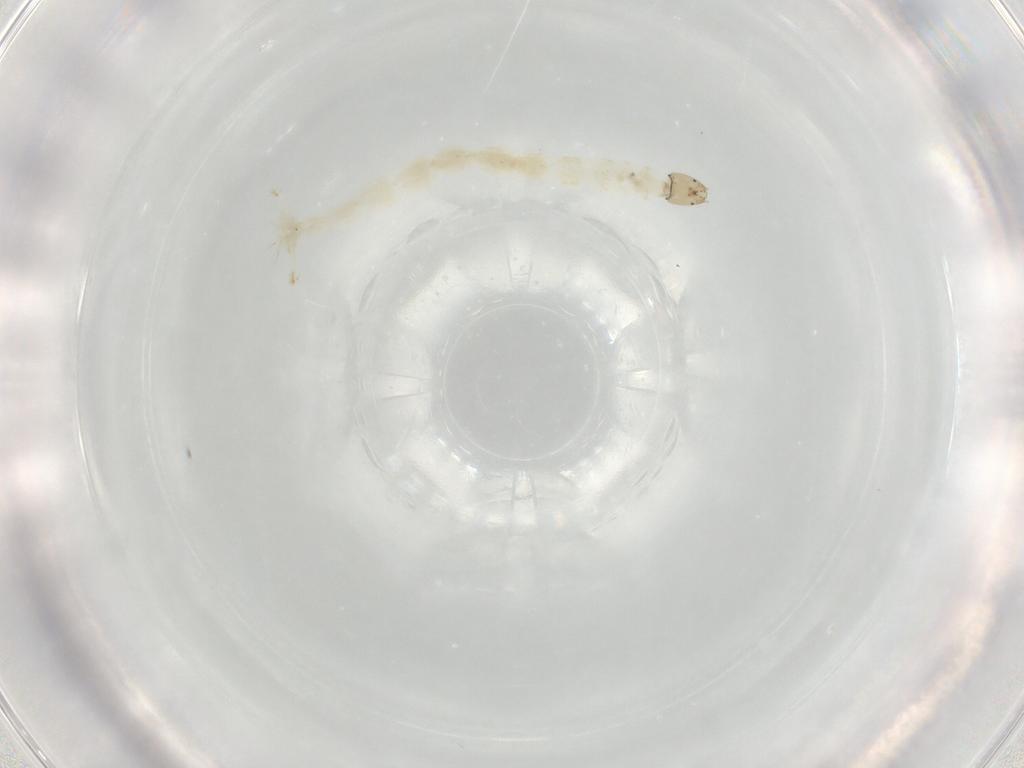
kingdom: Animalia
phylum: Arthropoda
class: Insecta
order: Diptera
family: Chironomidae
